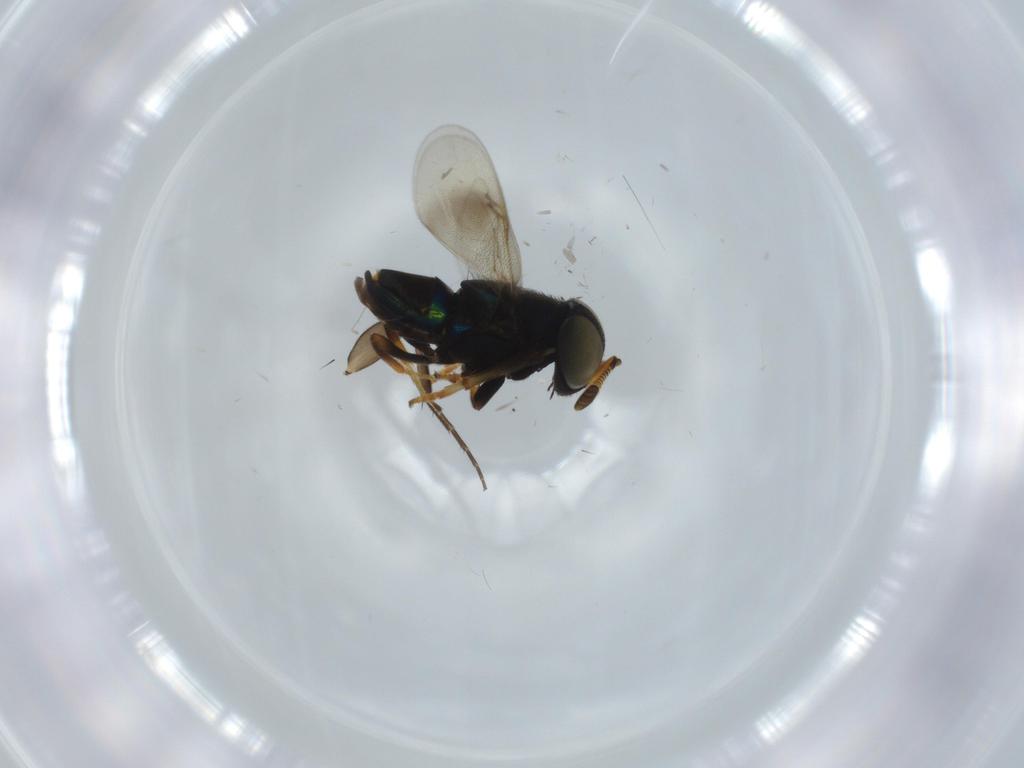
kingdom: Animalia
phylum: Arthropoda
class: Insecta
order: Hymenoptera
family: Encyrtidae
